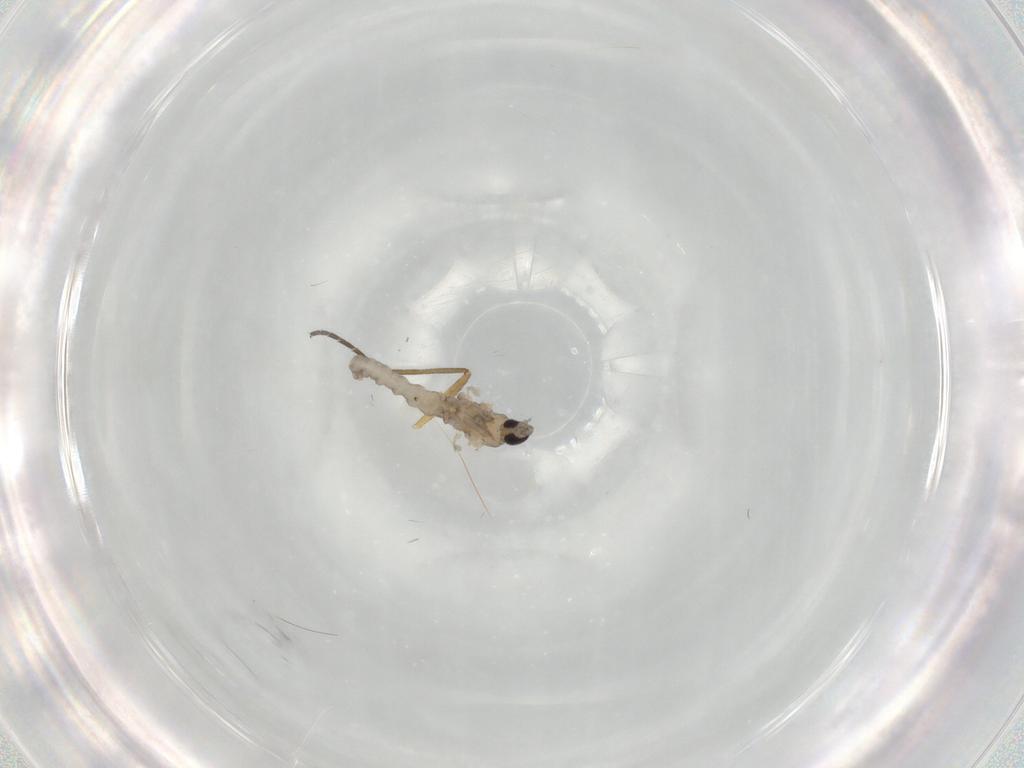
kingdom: Animalia
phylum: Arthropoda
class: Insecta
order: Diptera
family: Sciaridae
